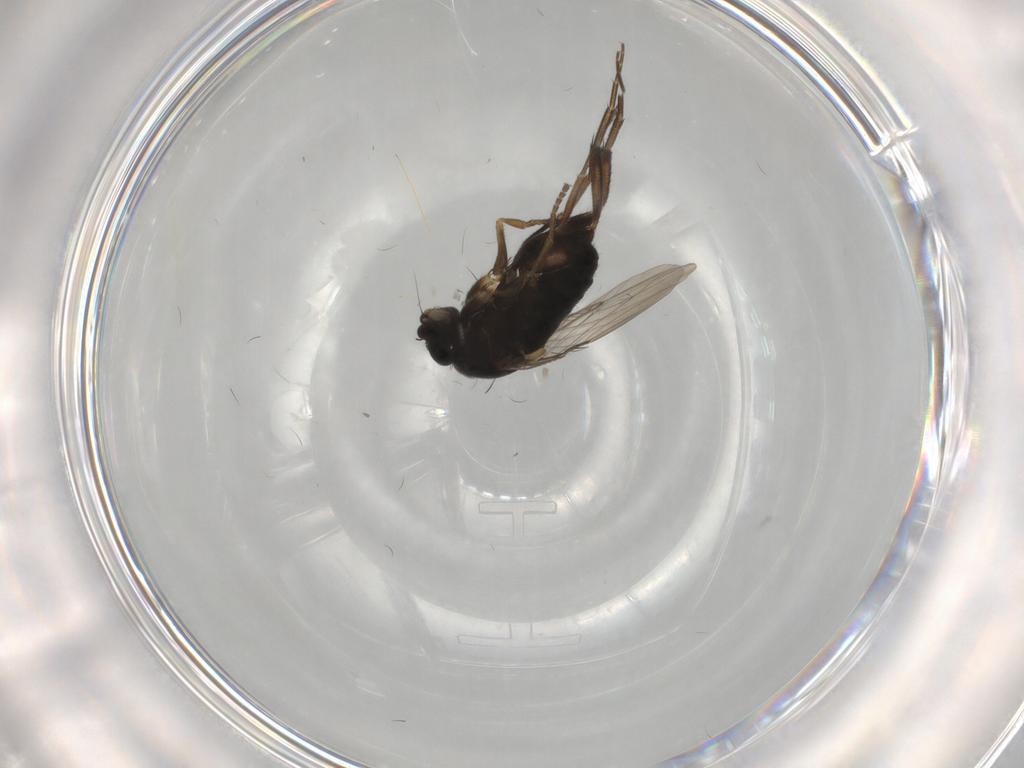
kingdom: Animalia
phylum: Arthropoda
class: Insecta
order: Diptera
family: Phoridae
